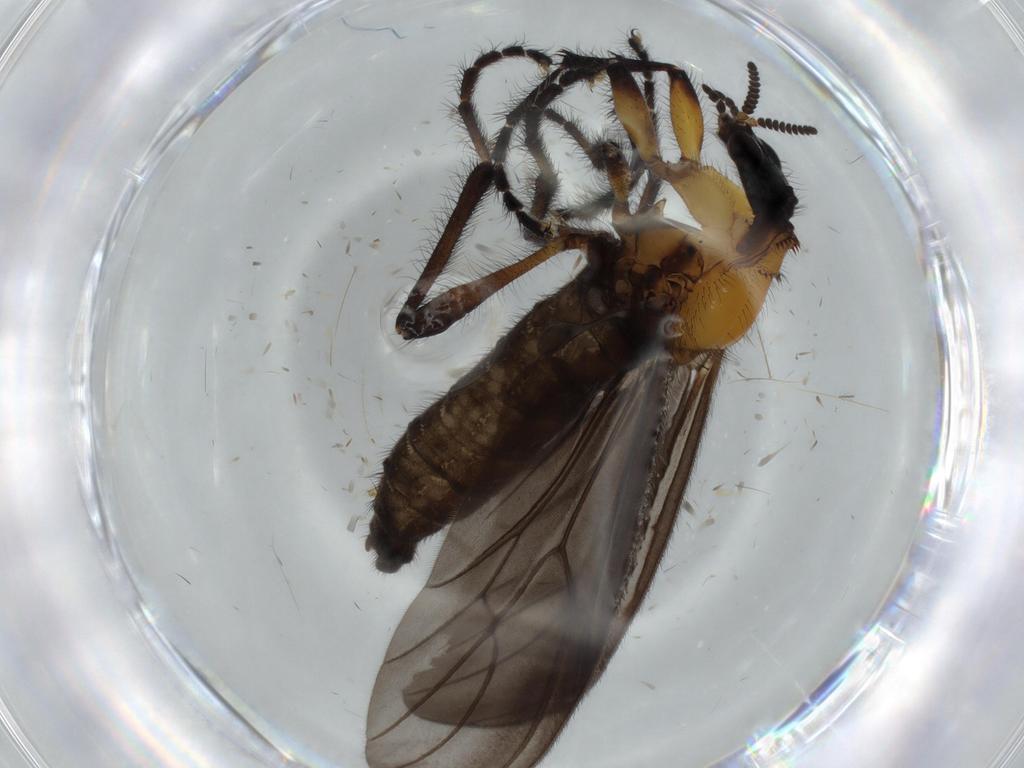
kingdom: Animalia
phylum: Arthropoda
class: Insecta
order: Diptera
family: Bibionidae
